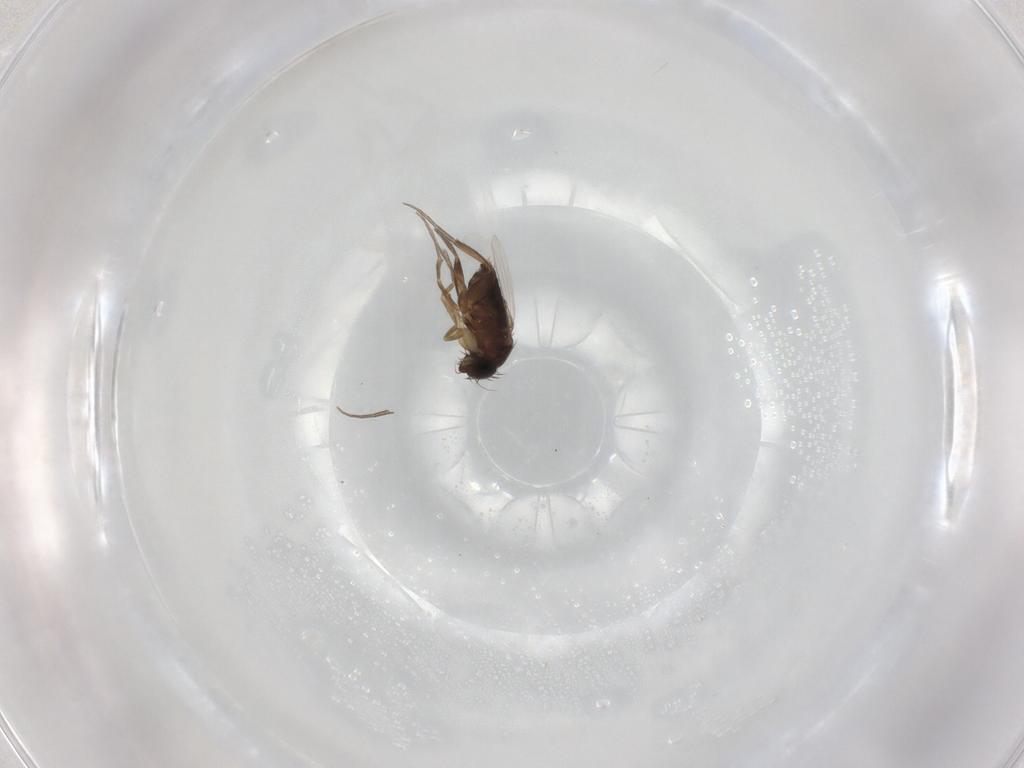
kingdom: Animalia
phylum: Arthropoda
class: Insecta
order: Diptera
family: Phoridae
